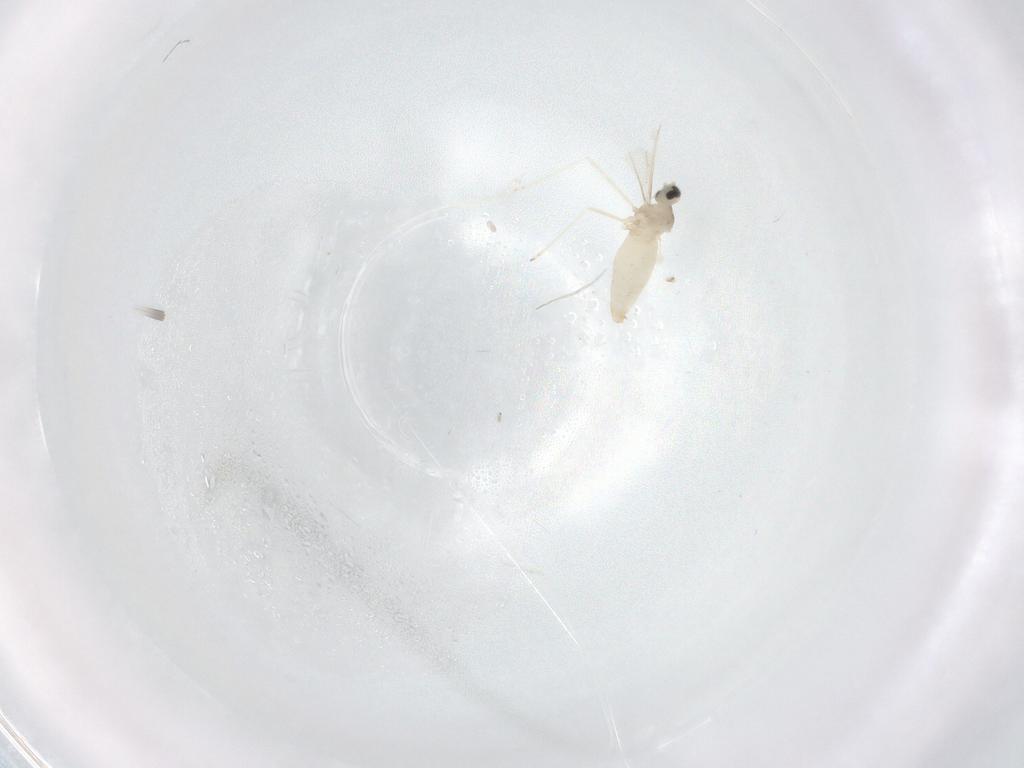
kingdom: Animalia
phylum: Arthropoda
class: Insecta
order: Diptera
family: Cecidomyiidae
